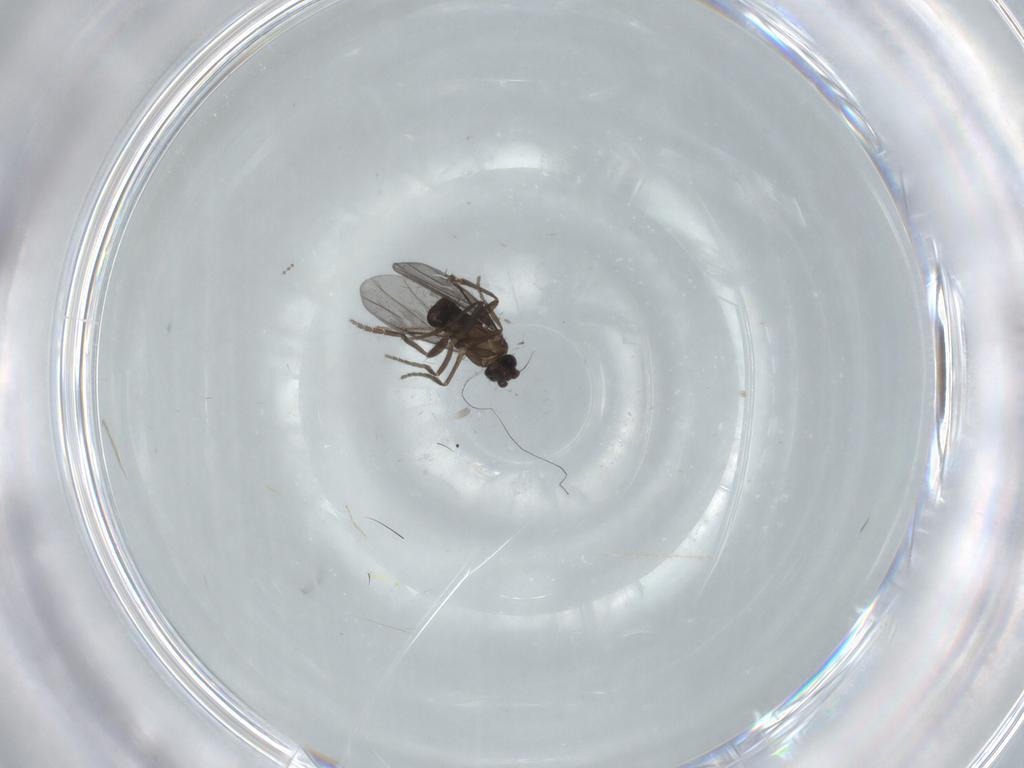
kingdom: Animalia
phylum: Arthropoda
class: Insecta
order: Diptera
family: Phoridae
